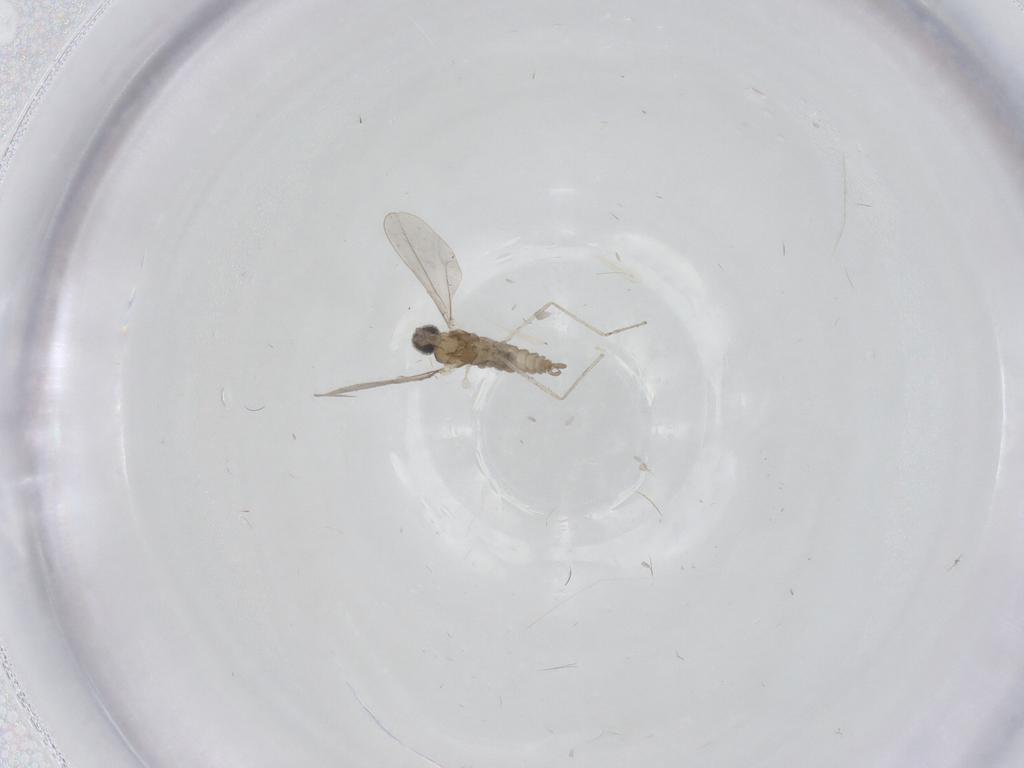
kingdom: Animalia
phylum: Arthropoda
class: Insecta
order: Diptera
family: Cecidomyiidae
